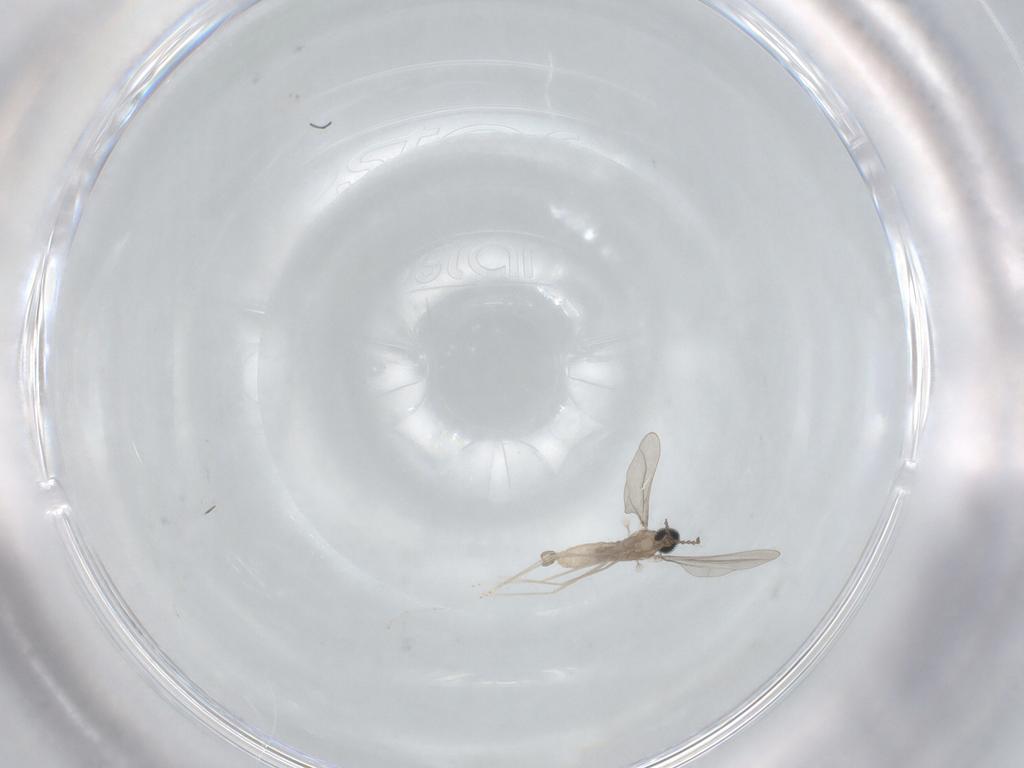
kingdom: Animalia
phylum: Arthropoda
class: Insecta
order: Diptera
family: Cecidomyiidae
